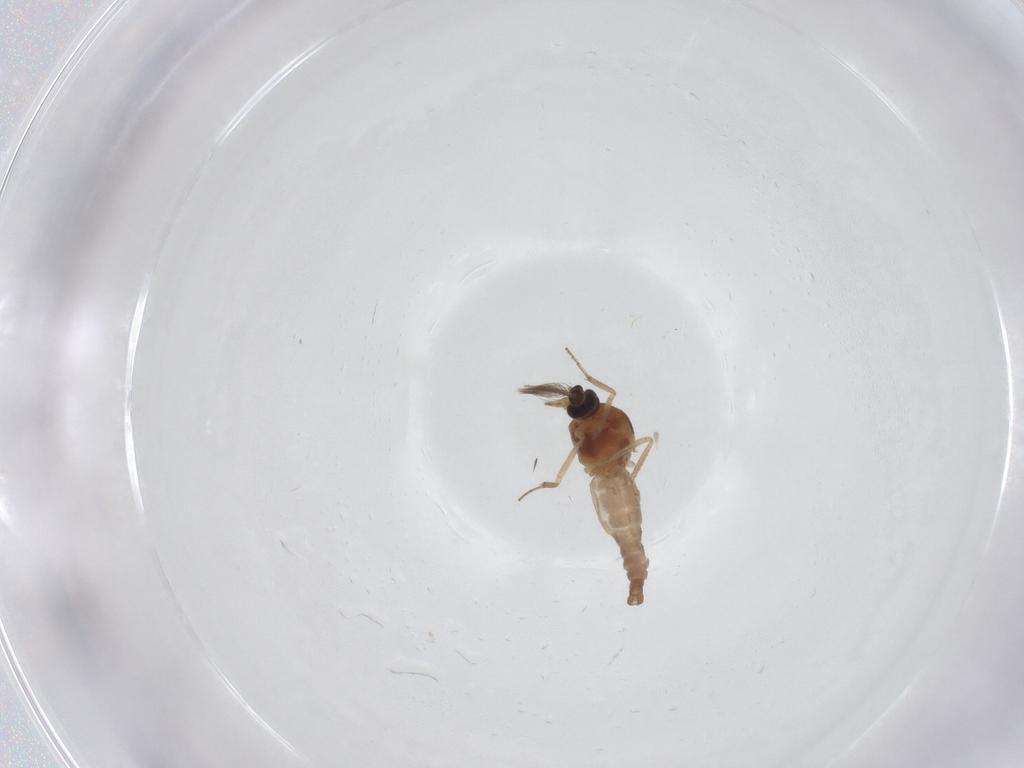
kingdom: Animalia
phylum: Arthropoda
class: Insecta
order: Diptera
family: Ceratopogonidae
